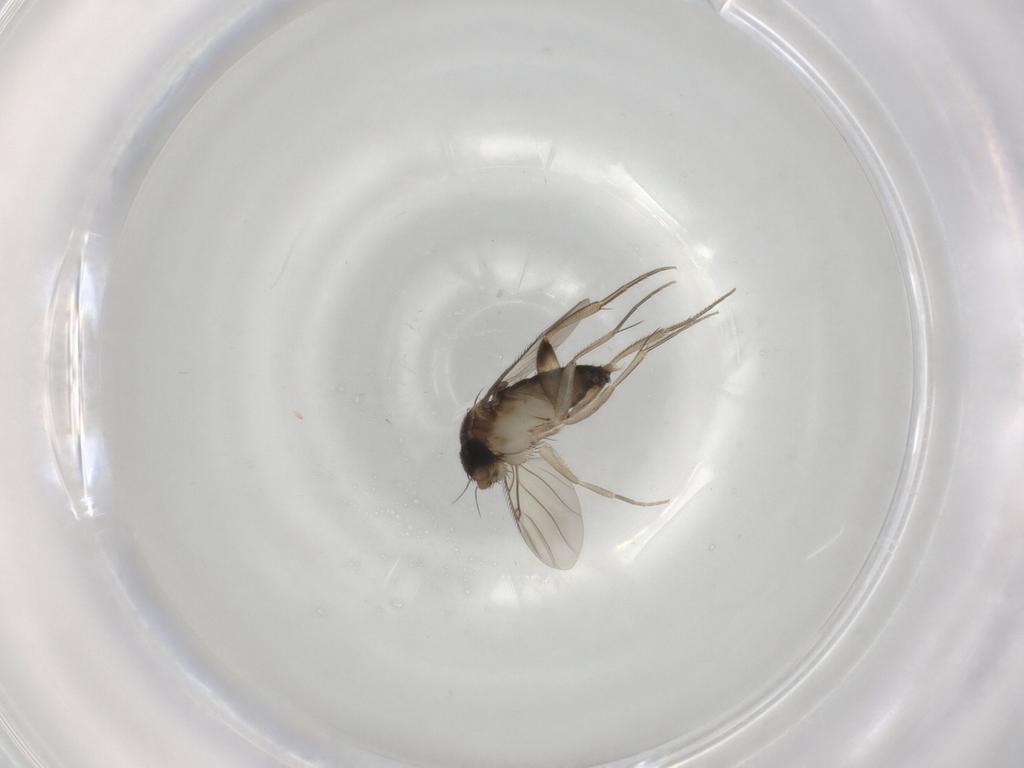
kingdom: Animalia
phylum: Arthropoda
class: Insecta
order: Diptera
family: Phoridae
